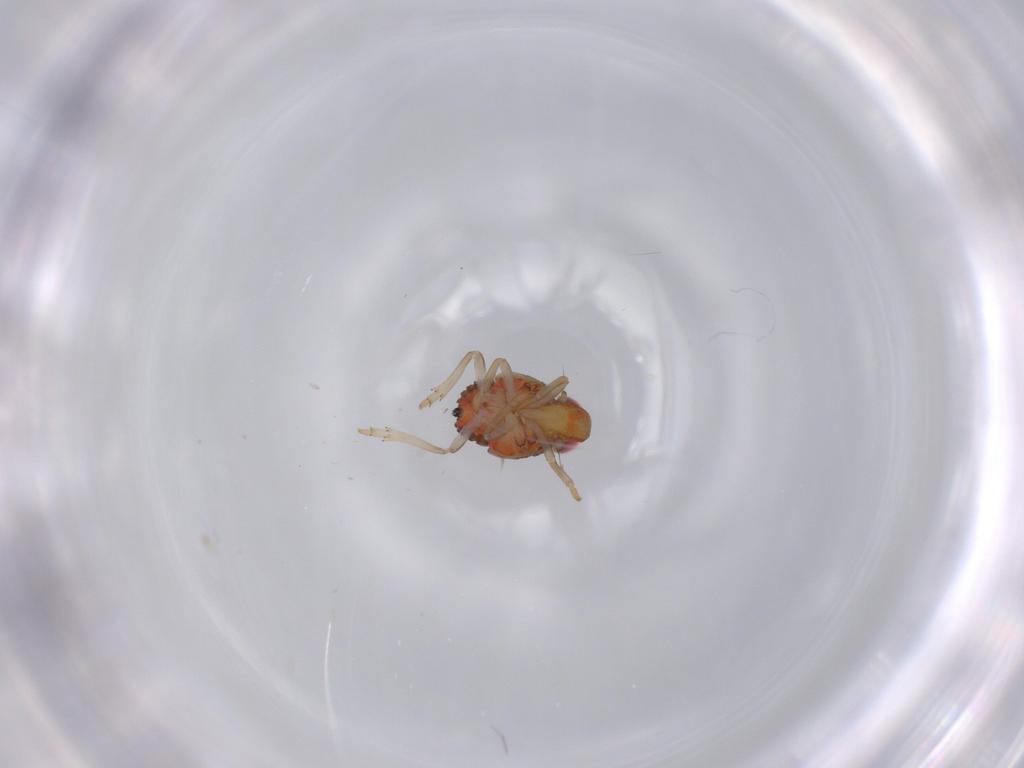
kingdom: Animalia
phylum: Arthropoda
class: Insecta
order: Hemiptera
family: Issidae
